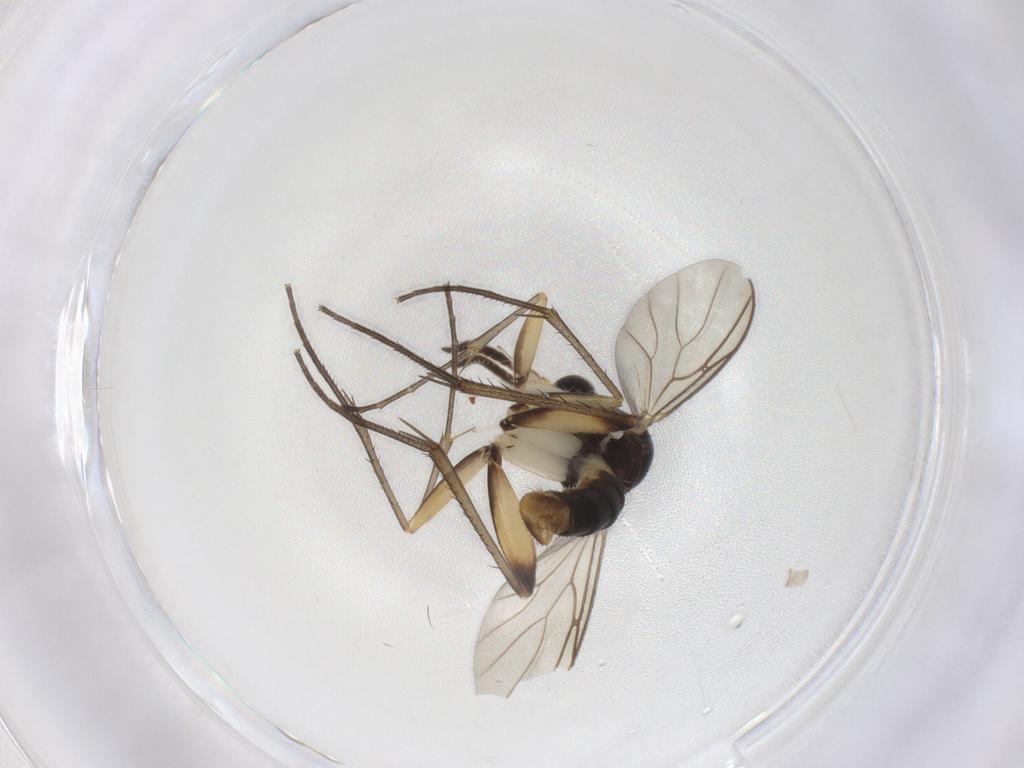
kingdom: Animalia
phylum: Arthropoda
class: Insecta
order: Diptera
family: Mycetophilidae
